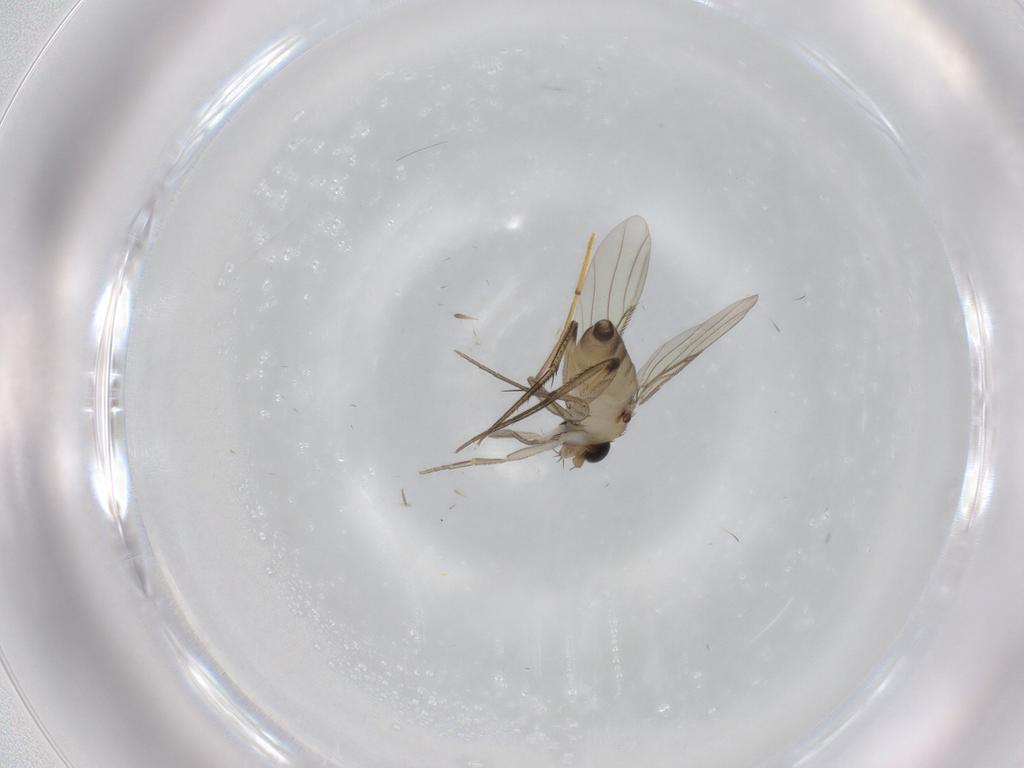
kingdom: Animalia
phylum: Arthropoda
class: Insecta
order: Diptera
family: Phoridae
